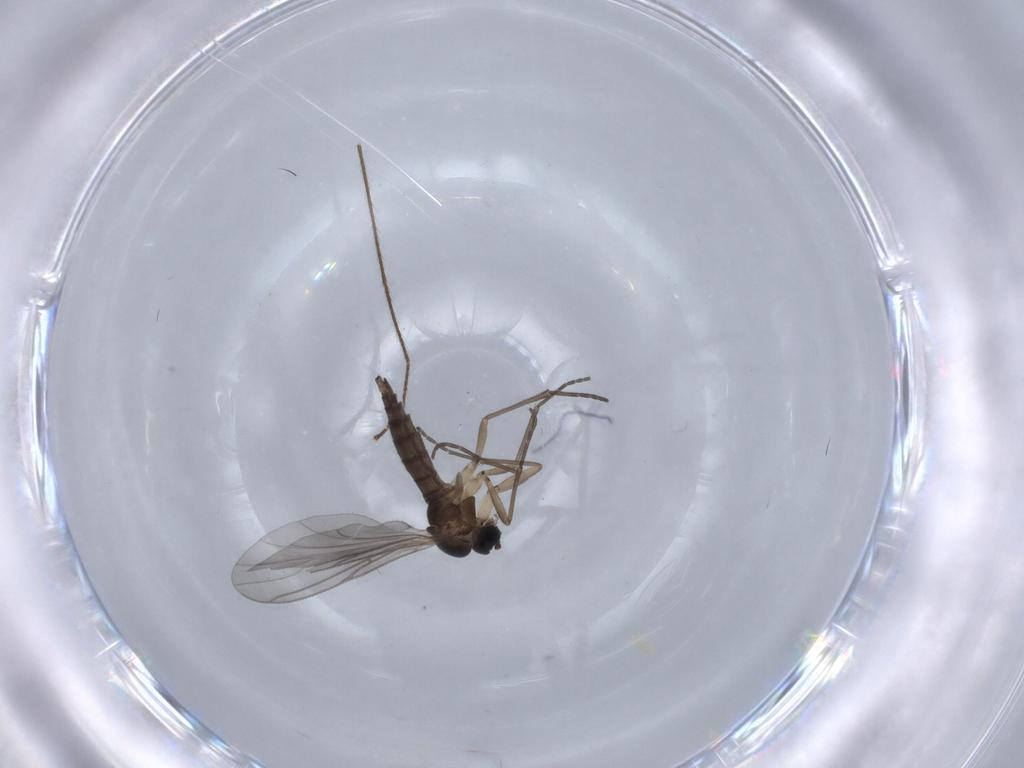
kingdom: Animalia
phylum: Arthropoda
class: Insecta
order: Diptera
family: Sciaridae
